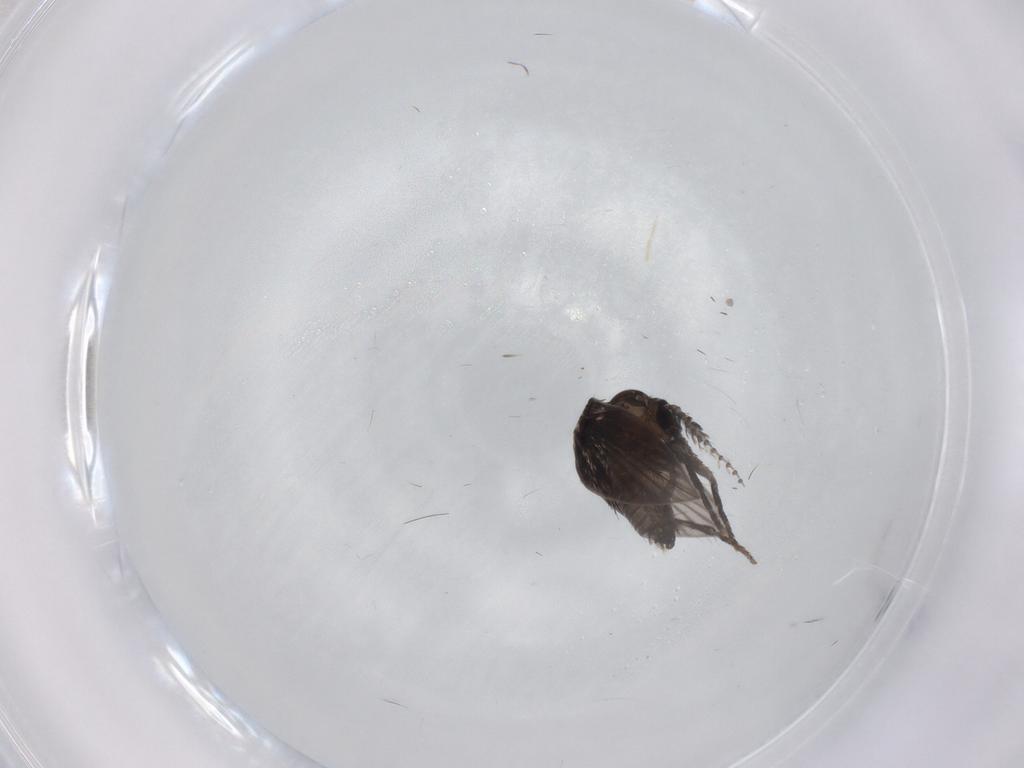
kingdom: Animalia
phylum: Arthropoda
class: Insecta
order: Diptera
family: Psychodidae
